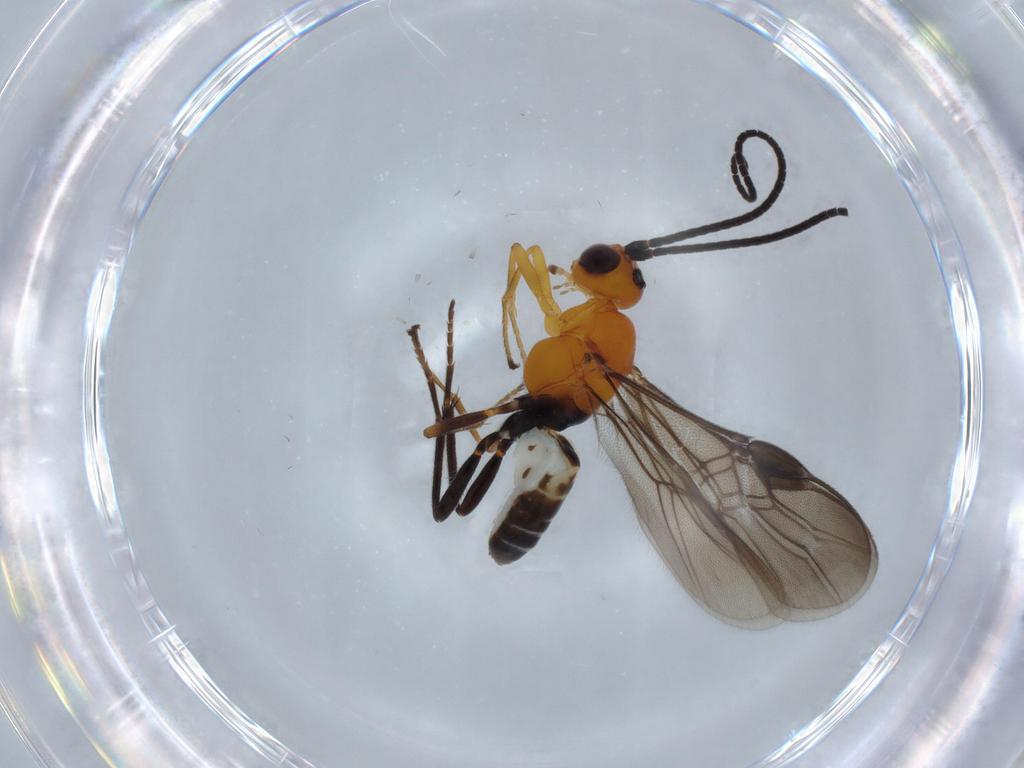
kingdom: Animalia
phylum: Arthropoda
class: Insecta
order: Hymenoptera
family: Braconidae
